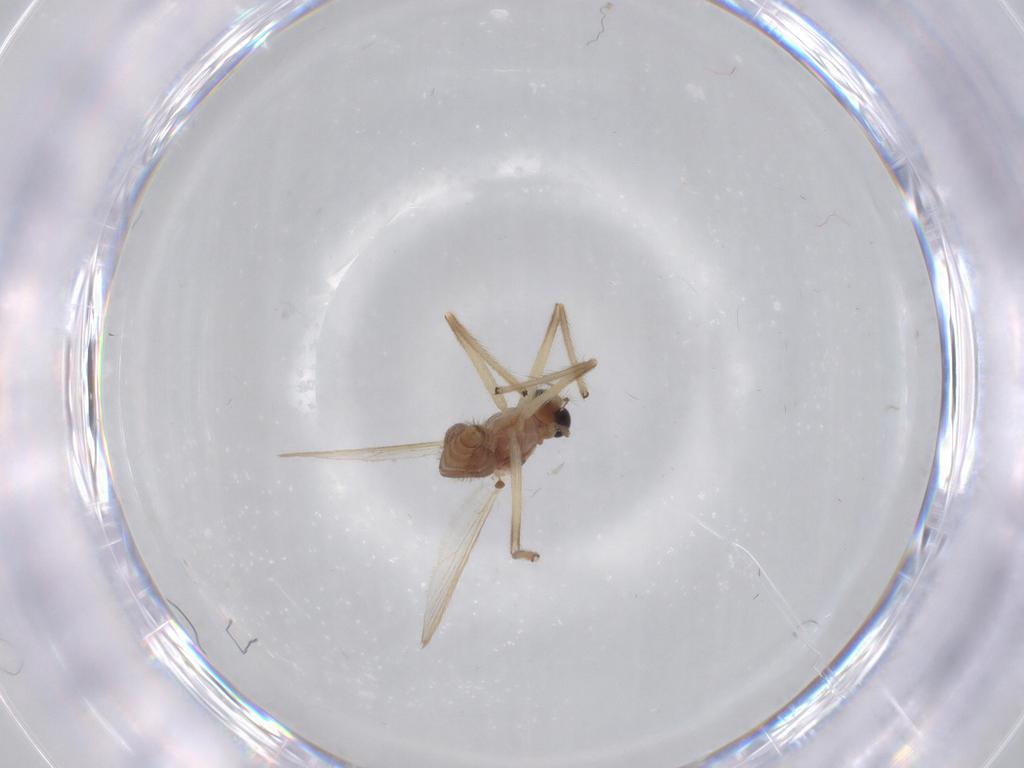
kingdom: Animalia
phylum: Arthropoda
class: Insecta
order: Diptera
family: Chironomidae
